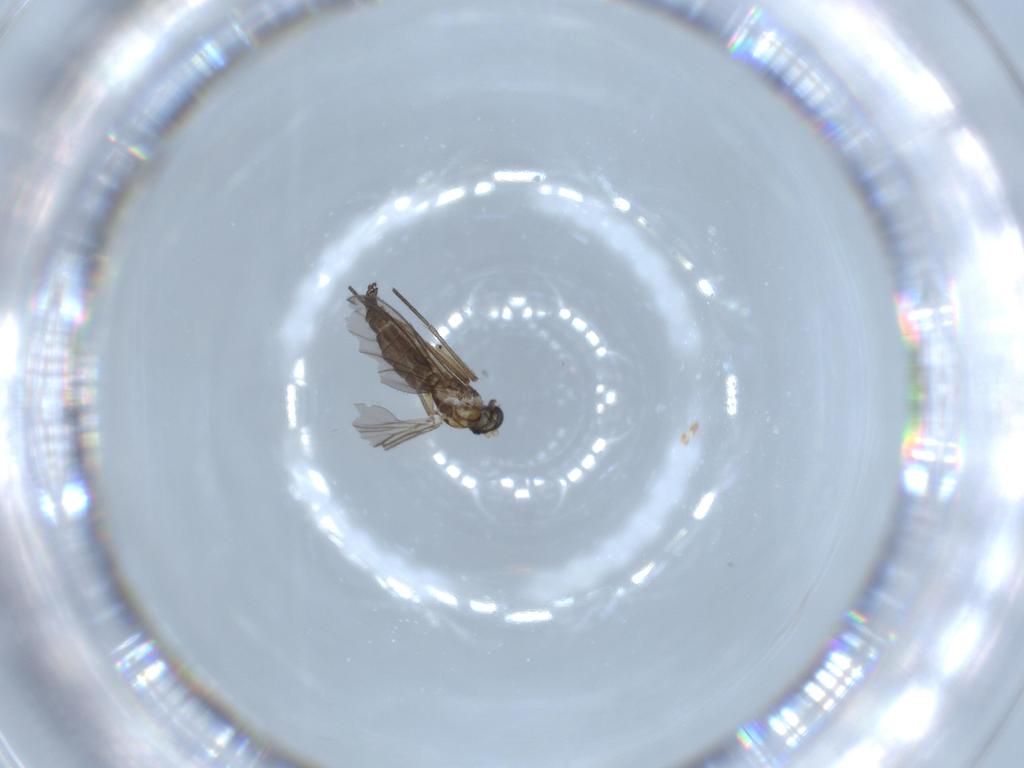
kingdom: Animalia
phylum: Arthropoda
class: Insecta
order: Diptera
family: Sciaridae
